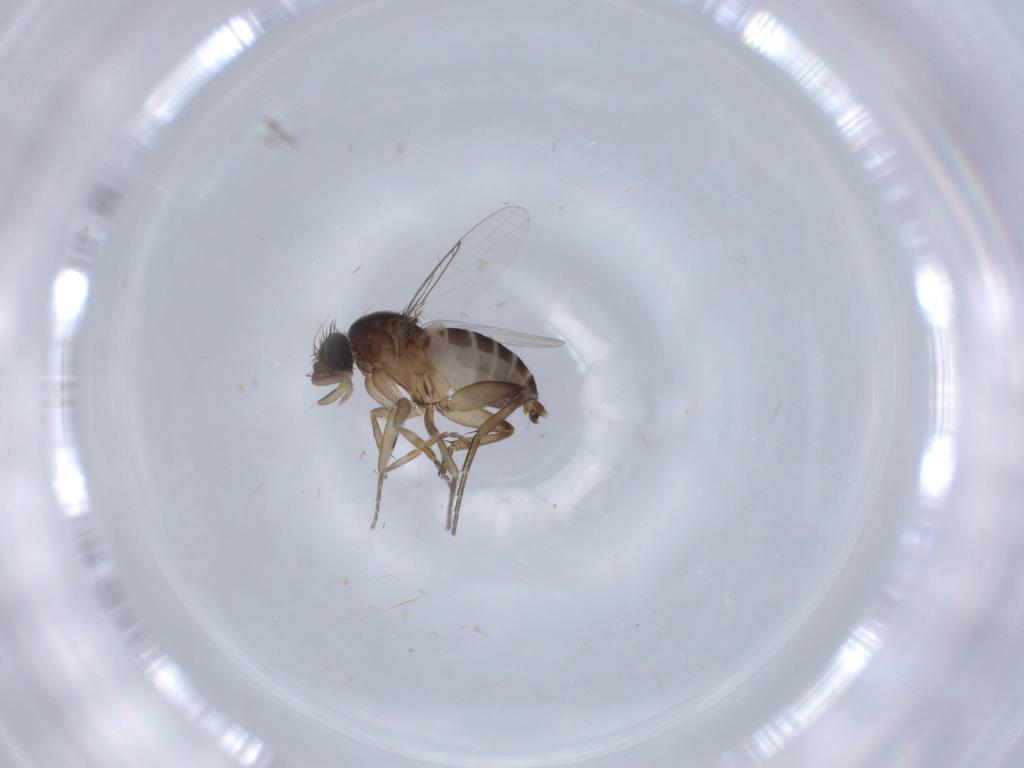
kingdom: Animalia
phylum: Arthropoda
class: Insecta
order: Diptera
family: Phoridae
